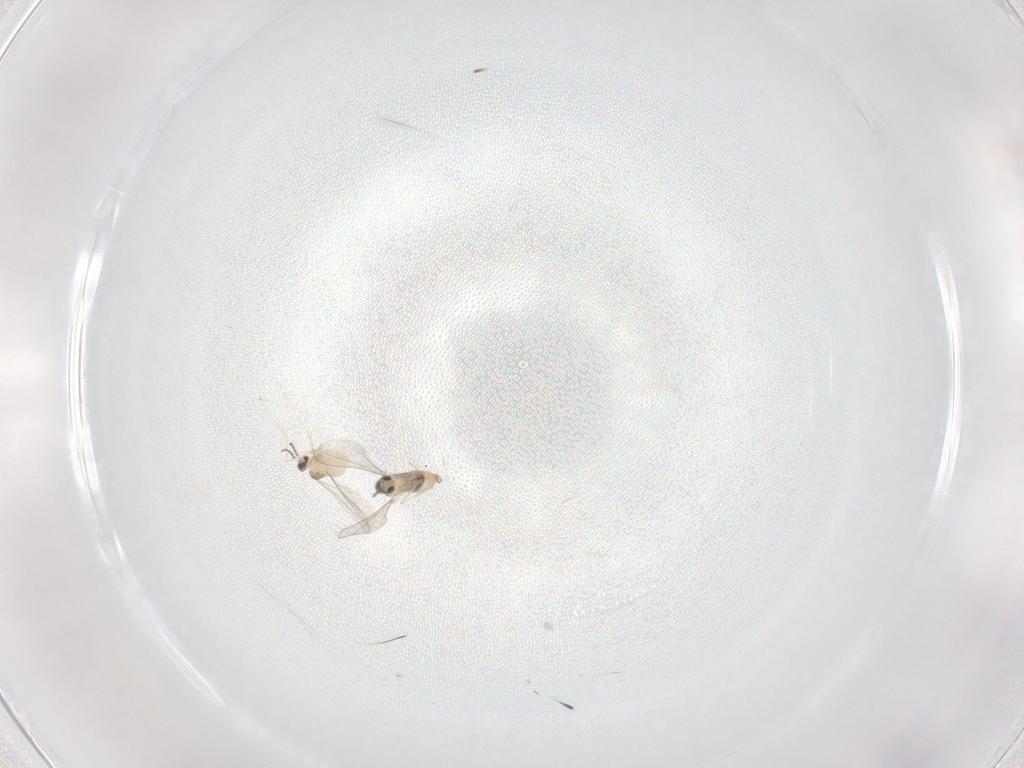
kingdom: Animalia
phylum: Arthropoda
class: Insecta
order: Diptera
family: Cecidomyiidae
